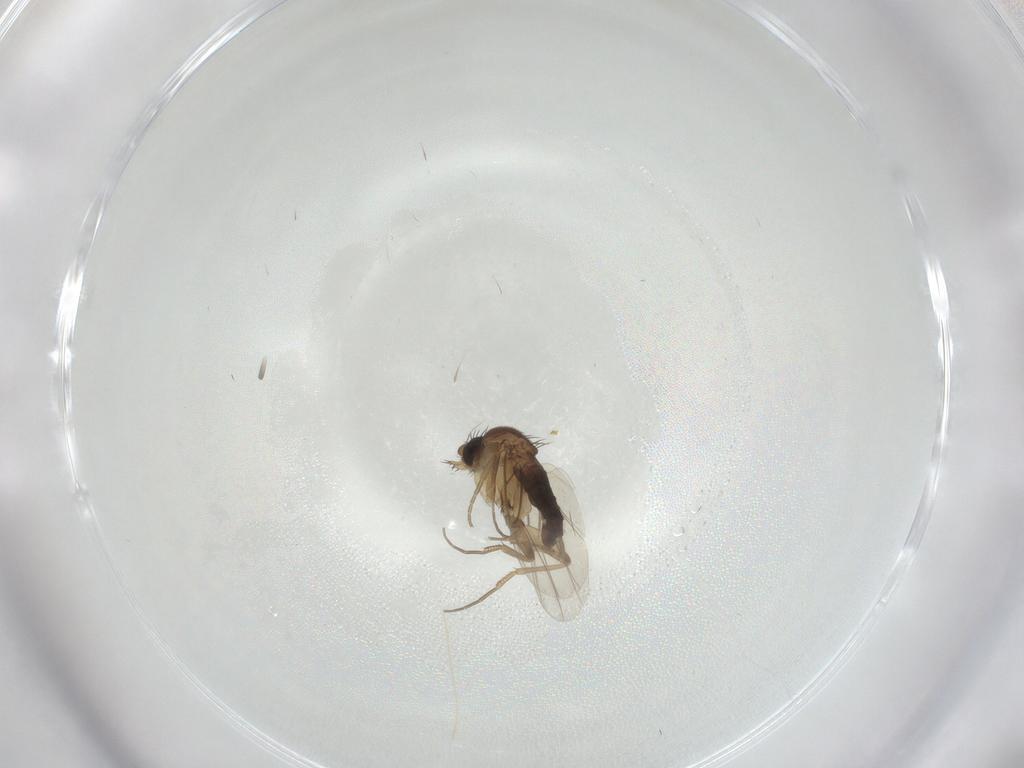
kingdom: Animalia
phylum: Arthropoda
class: Insecta
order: Diptera
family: Phoridae
